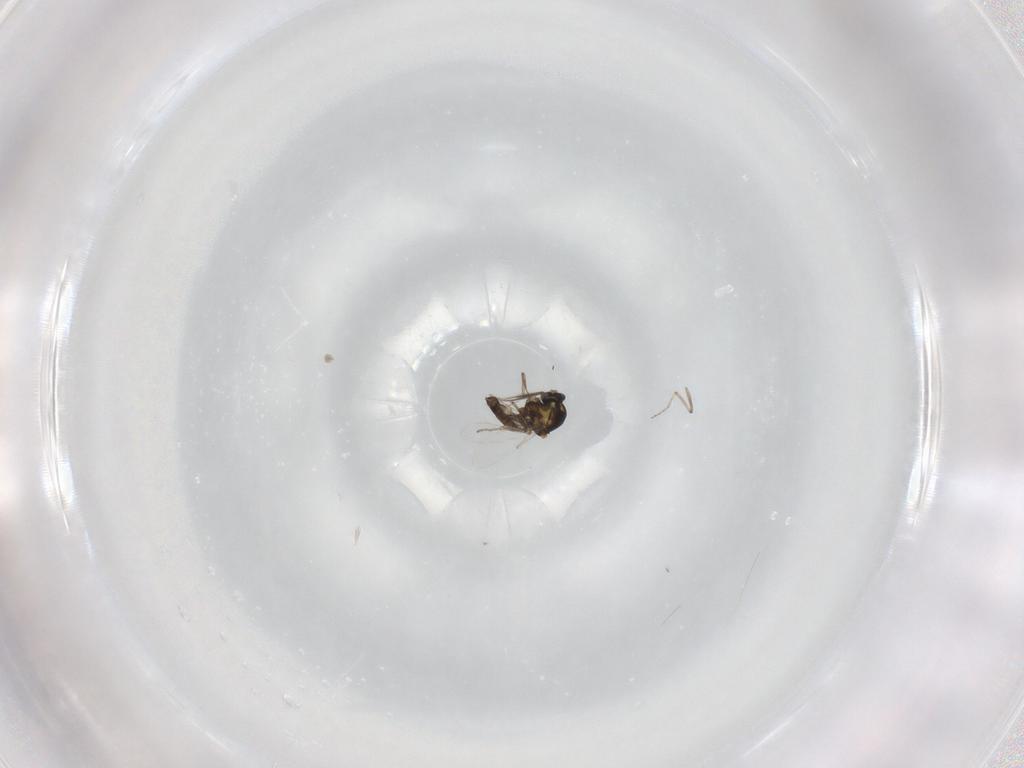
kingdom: Animalia
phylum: Arthropoda
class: Insecta
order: Diptera
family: Ceratopogonidae
